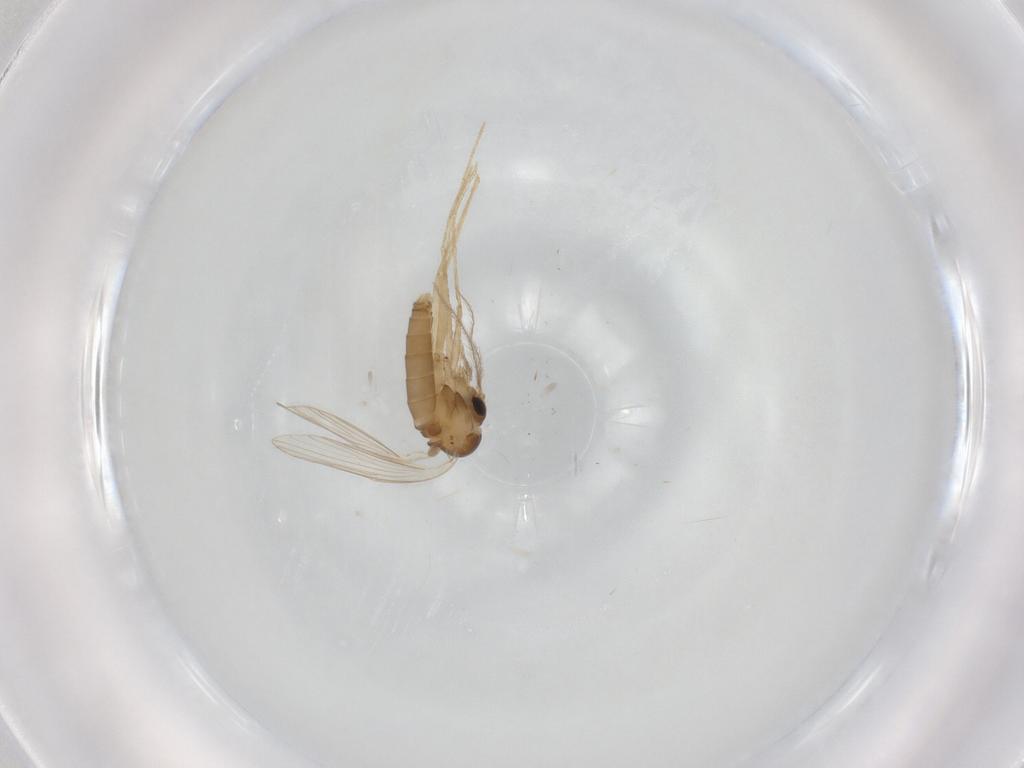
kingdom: Animalia
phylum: Arthropoda
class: Insecta
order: Diptera
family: Psychodidae
